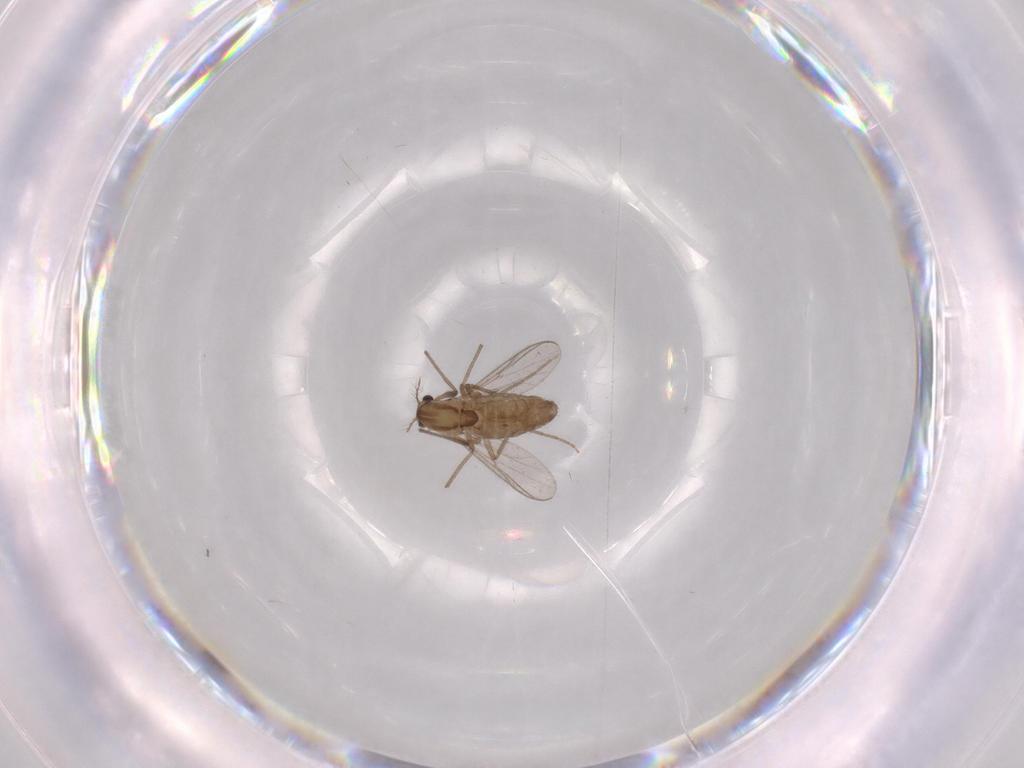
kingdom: Animalia
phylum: Arthropoda
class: Insecta
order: Diptera
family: Chironomidae
